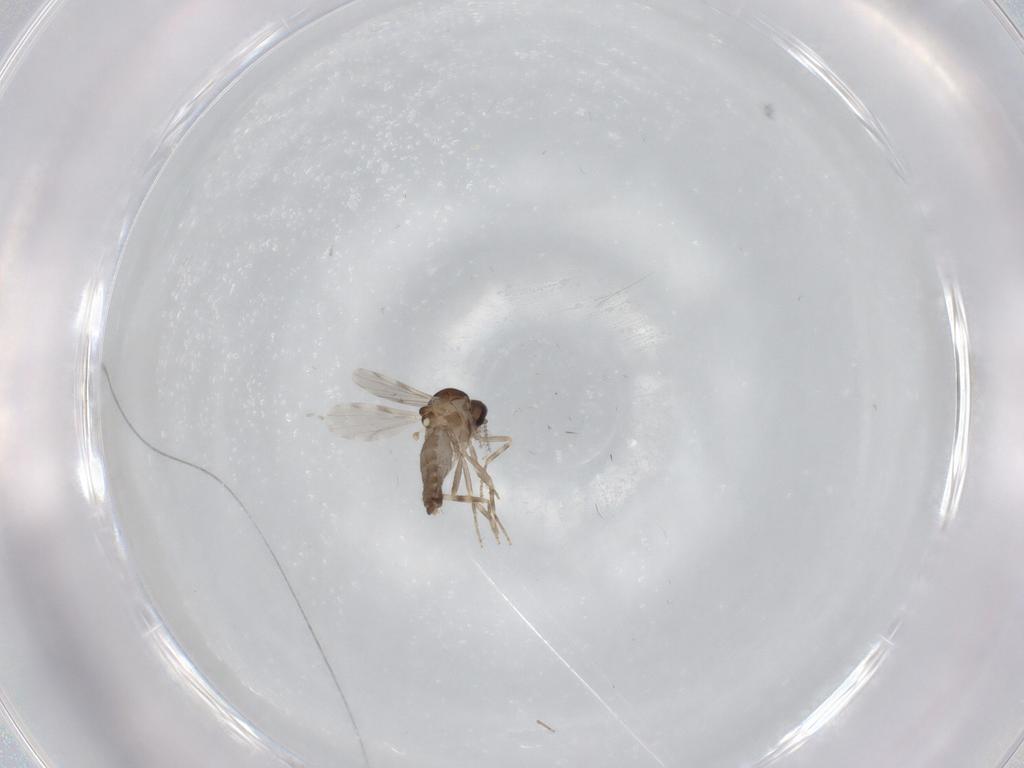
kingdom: Animalia
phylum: Arthropoda
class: Insecta
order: Diptera
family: Ceratopogonidae
